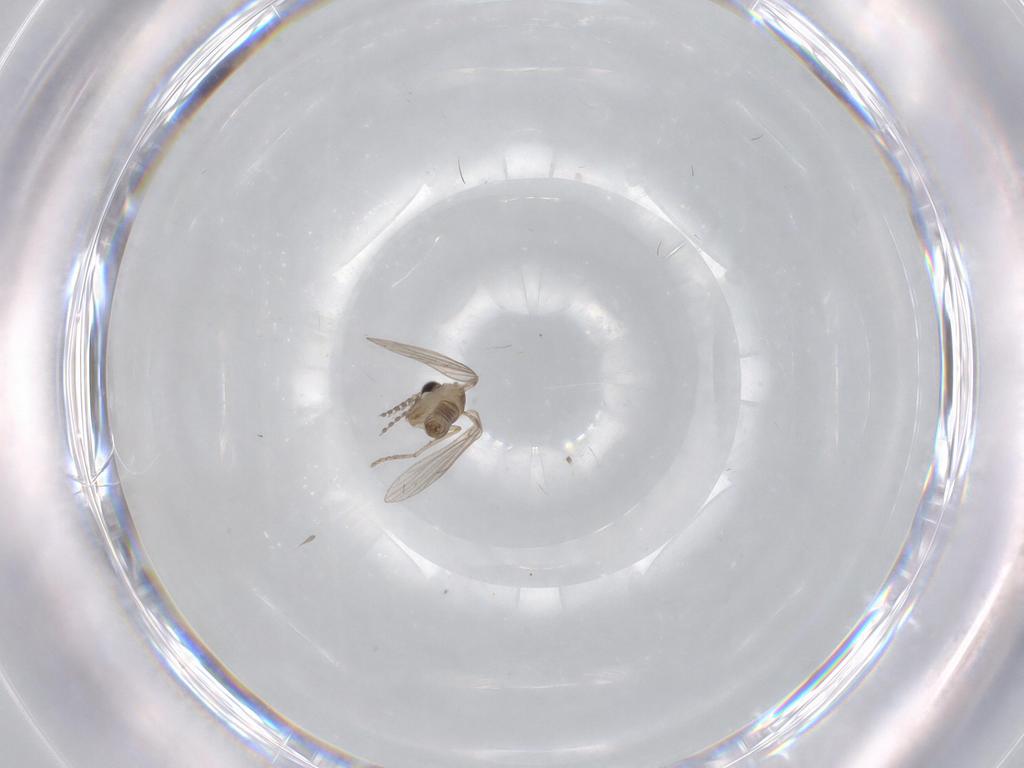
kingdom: Animalia
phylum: Arthropoda
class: Insecta
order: Diptera
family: Psychodidae
